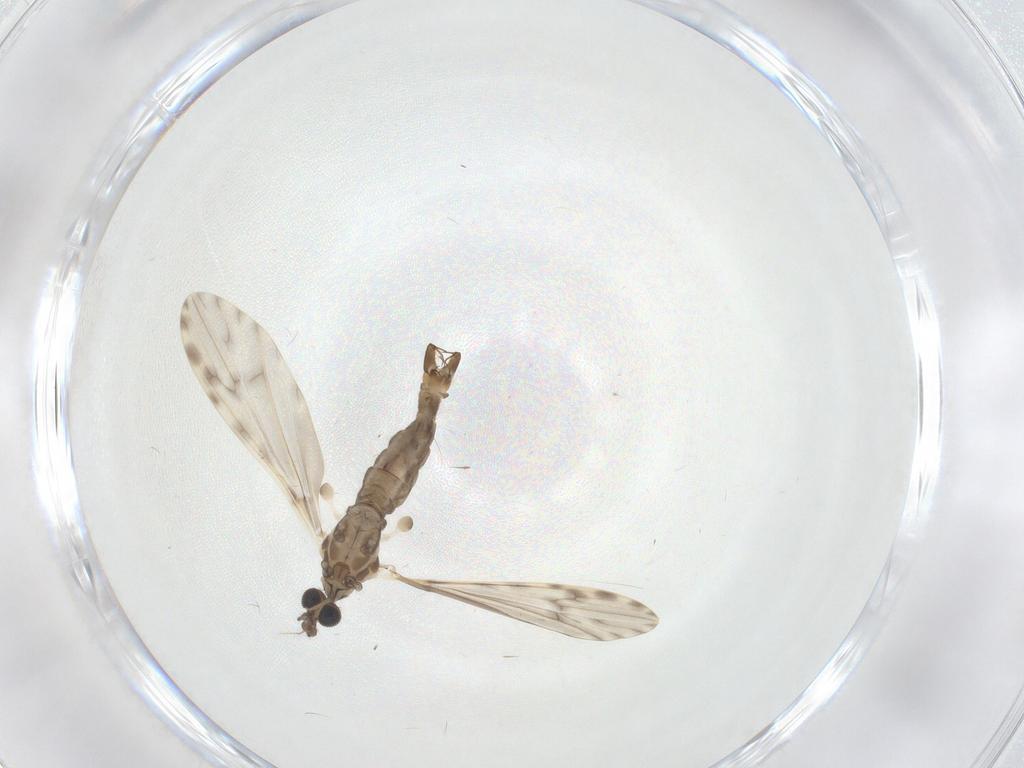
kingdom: Animalia
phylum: Arthropoda
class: Insecta
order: Diptera
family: Limoniidae
